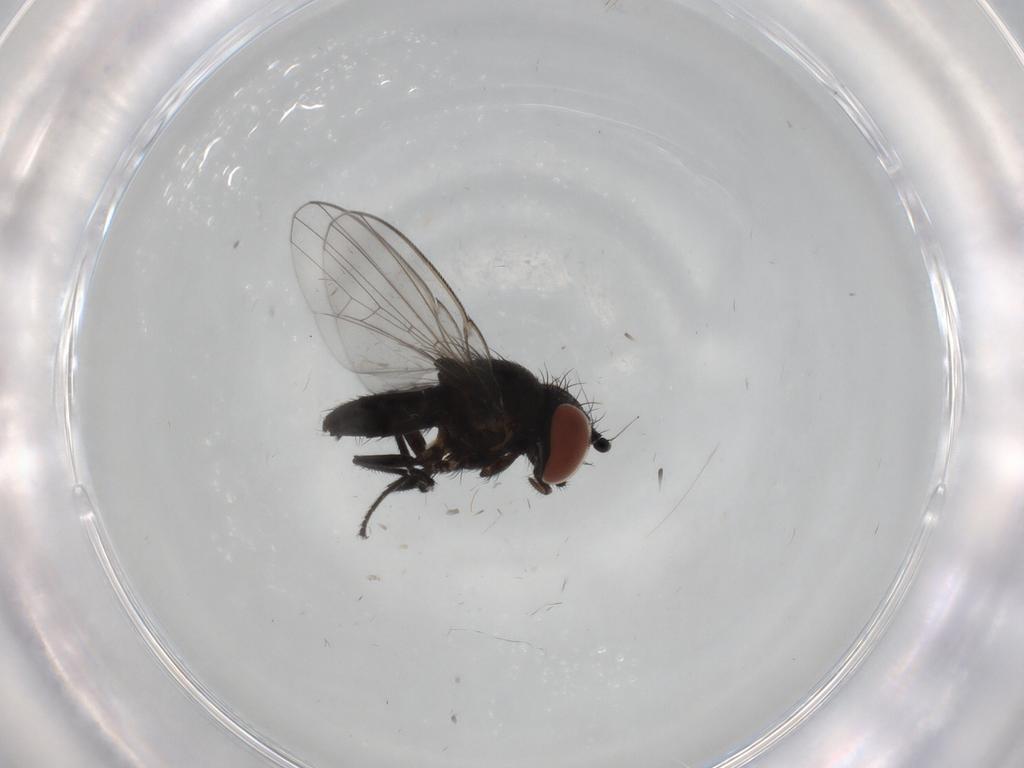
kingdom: Animalia
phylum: Arthropoda
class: Insecta
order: Diptera
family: Milichiidae
